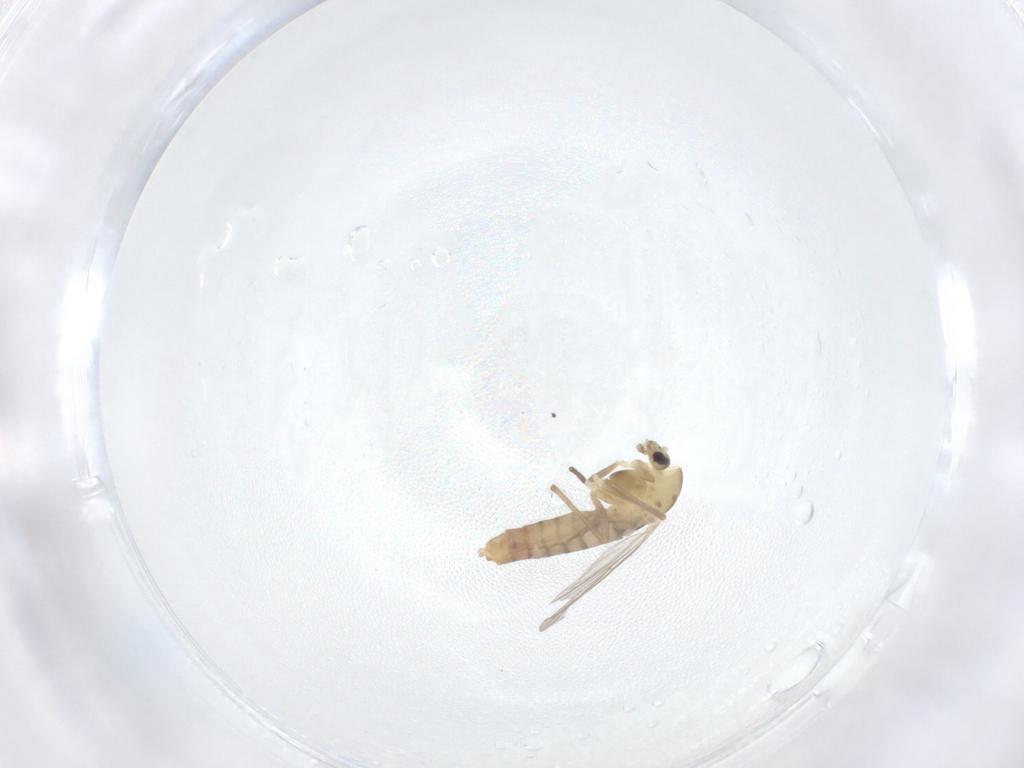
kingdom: Animalia
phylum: Arthropoda
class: Insecta
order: Diptera
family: Chironomidae
